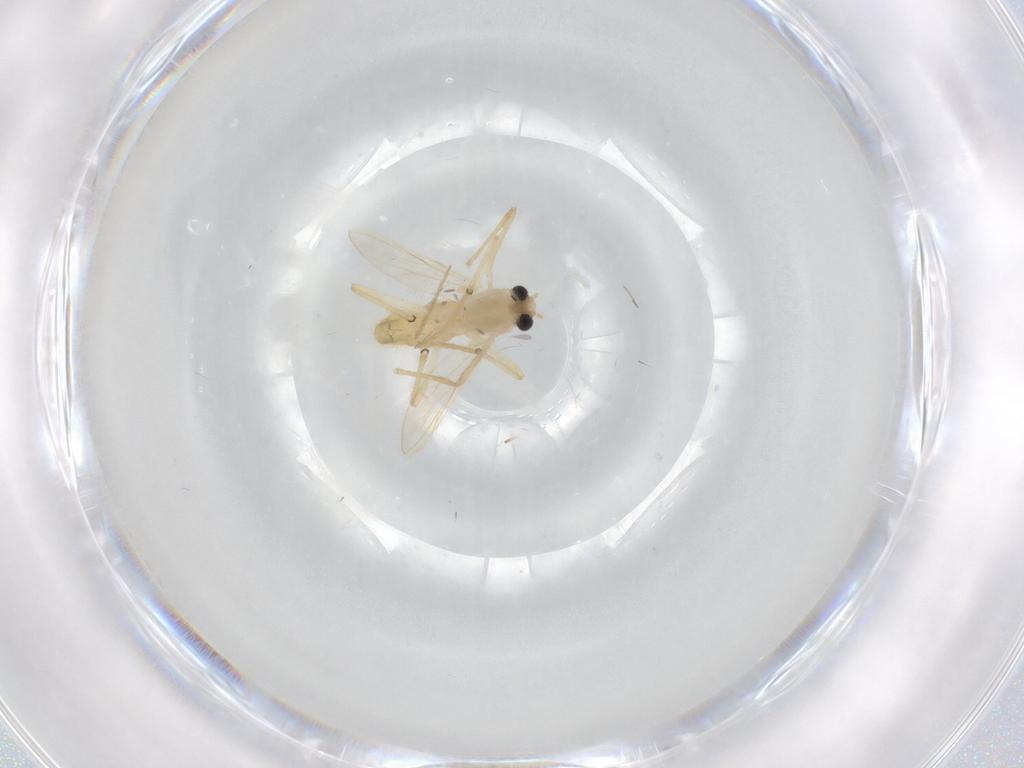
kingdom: Animalia
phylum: Arthropoda
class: Insecta
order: Diptera
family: Chironomidae
